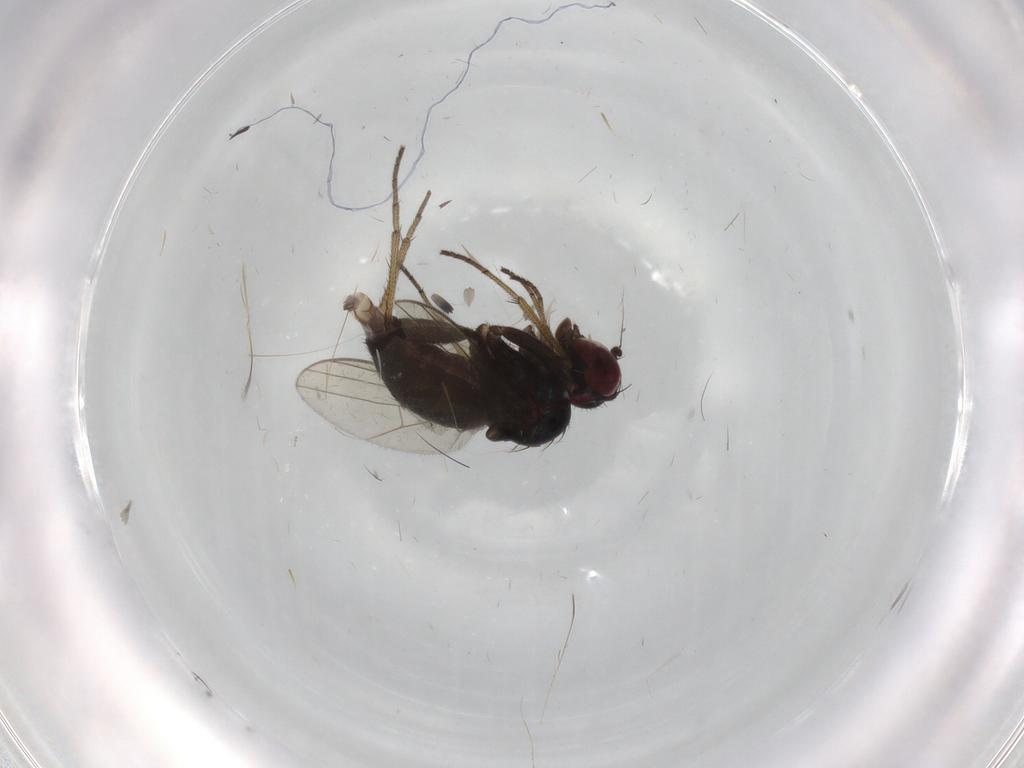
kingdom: Animalia
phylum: Arthropoda
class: Insecta
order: Diptera
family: Dolichopodidae
